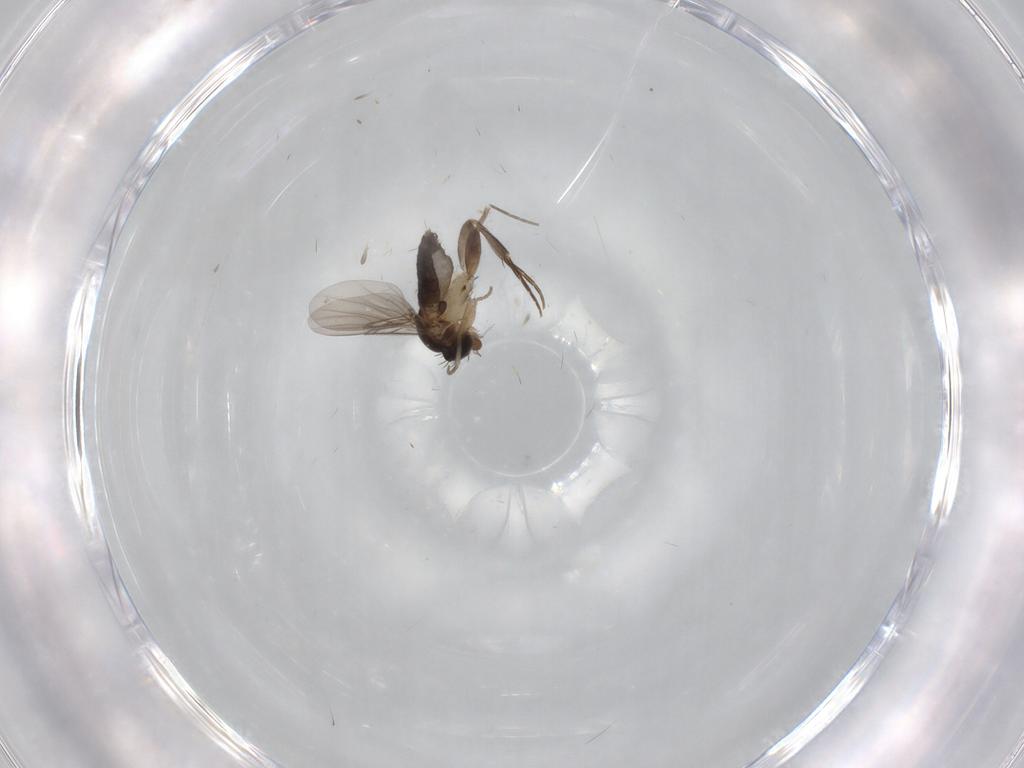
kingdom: Animalia
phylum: Arthropoda
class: Insecta
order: Diptera
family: Phoridae
